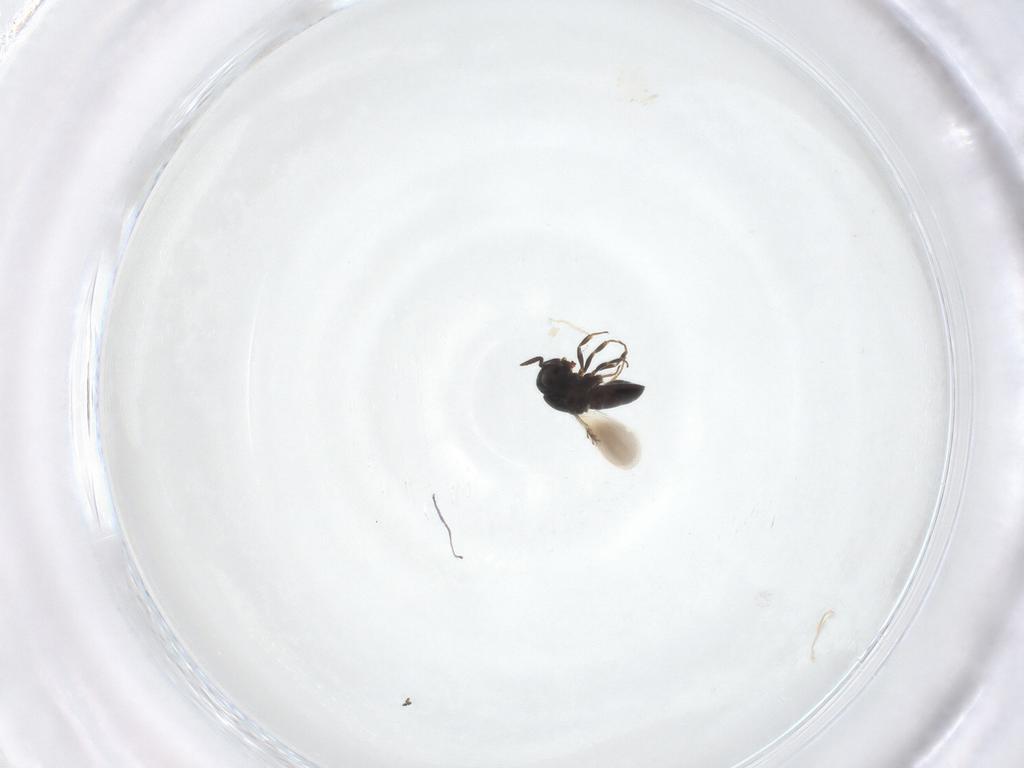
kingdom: Animalia
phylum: Arthropoda
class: Insecta
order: Hymenoptera
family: Scelionidae
